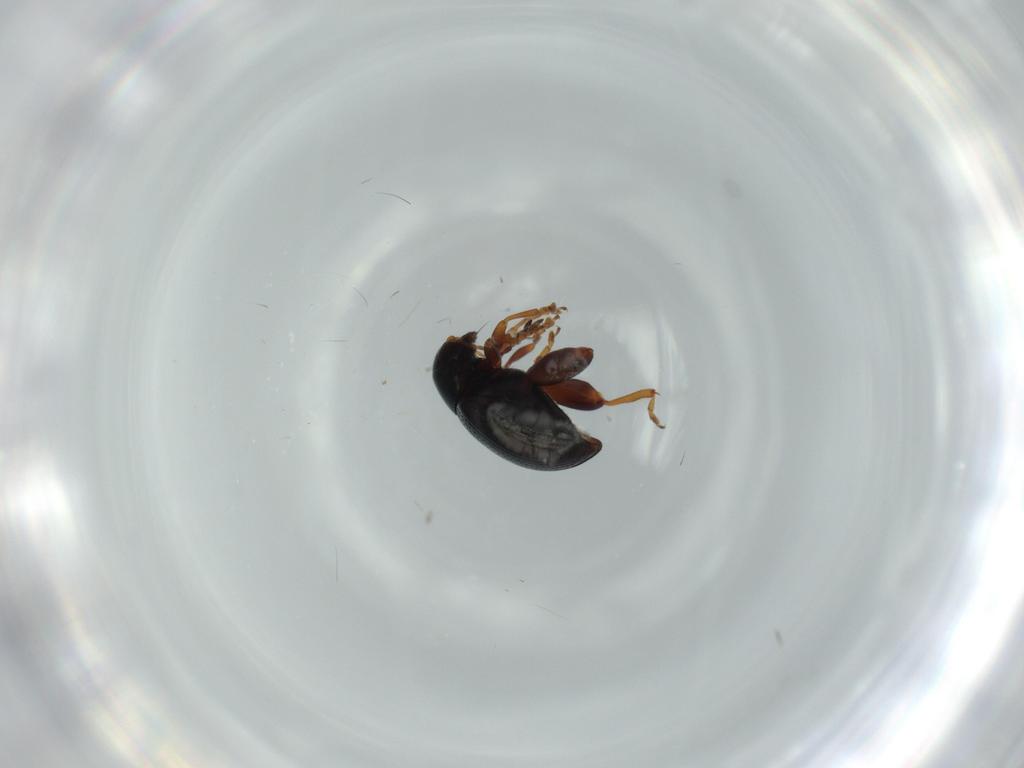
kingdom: Animalia
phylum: Arthropoda
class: Insecta
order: Coleoptera
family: Chrysomelidae
